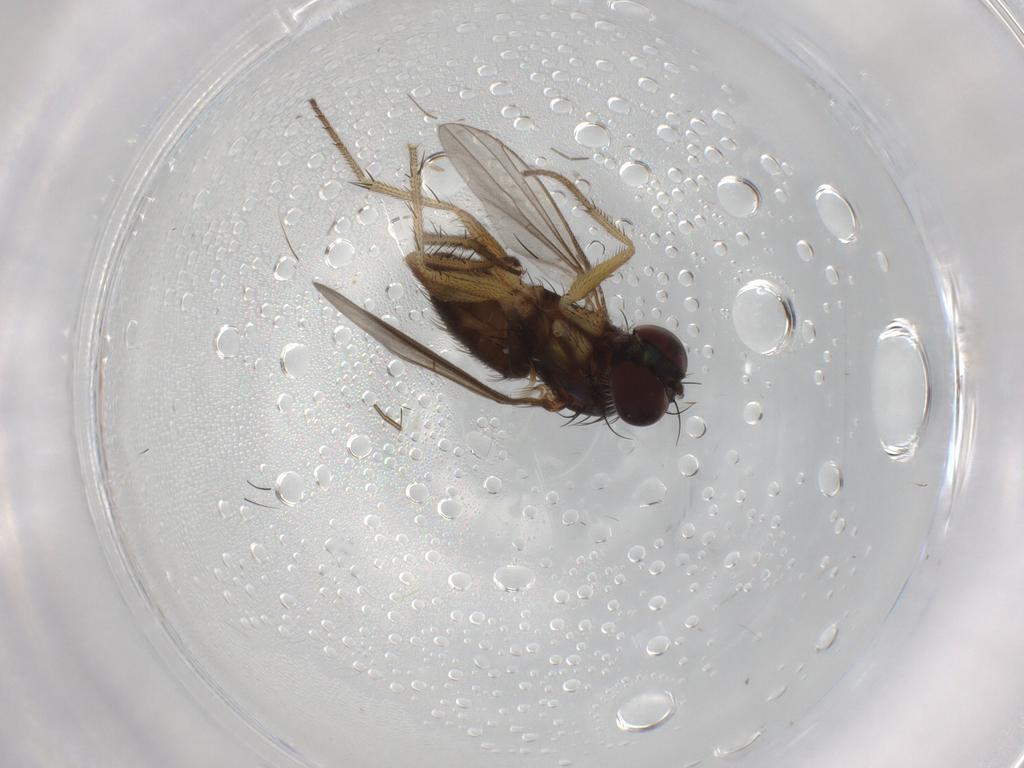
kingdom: Animalia
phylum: Arthropoda
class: Insecta
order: Diptera
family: Dolichopodidae
